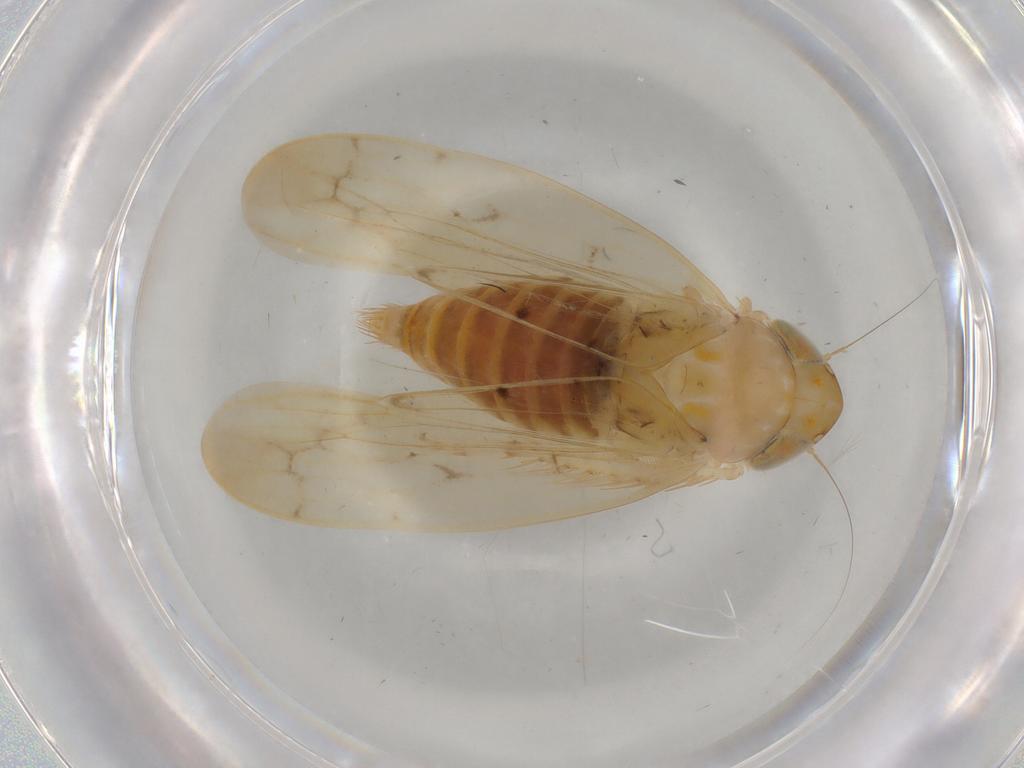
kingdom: Animalia
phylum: Arthropoda
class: Insecta
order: Hemiptera
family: Cicadellidae
